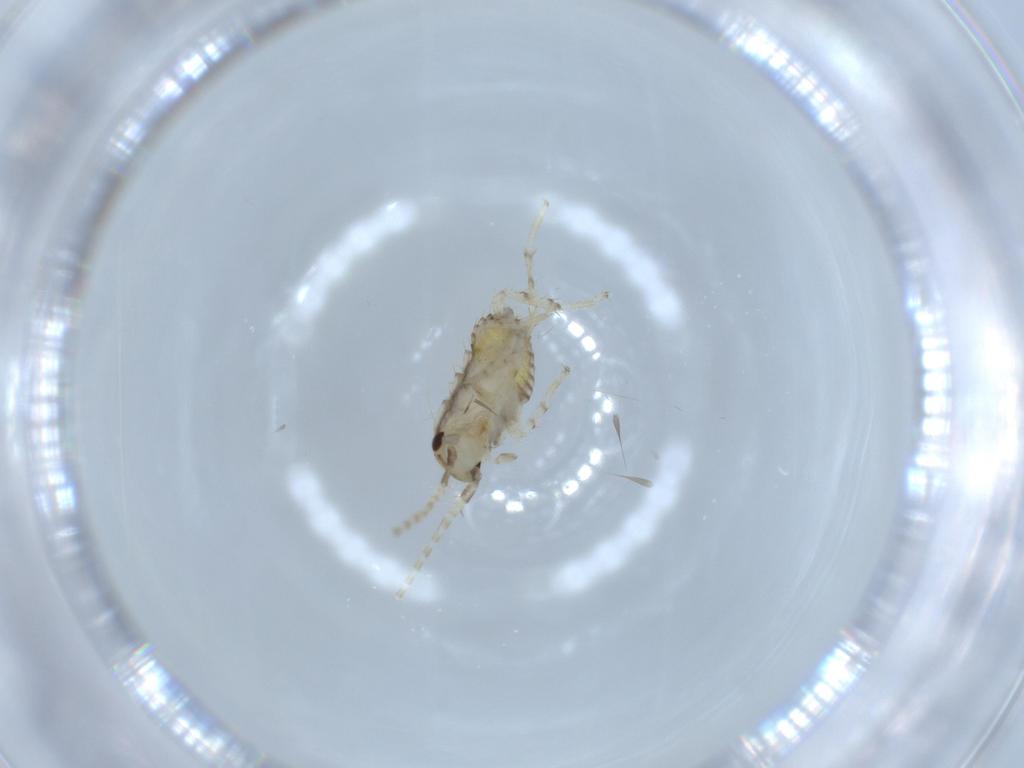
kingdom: Animalia
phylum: Arthropoda
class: Insecta
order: Blattodea
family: Ectobiidae
